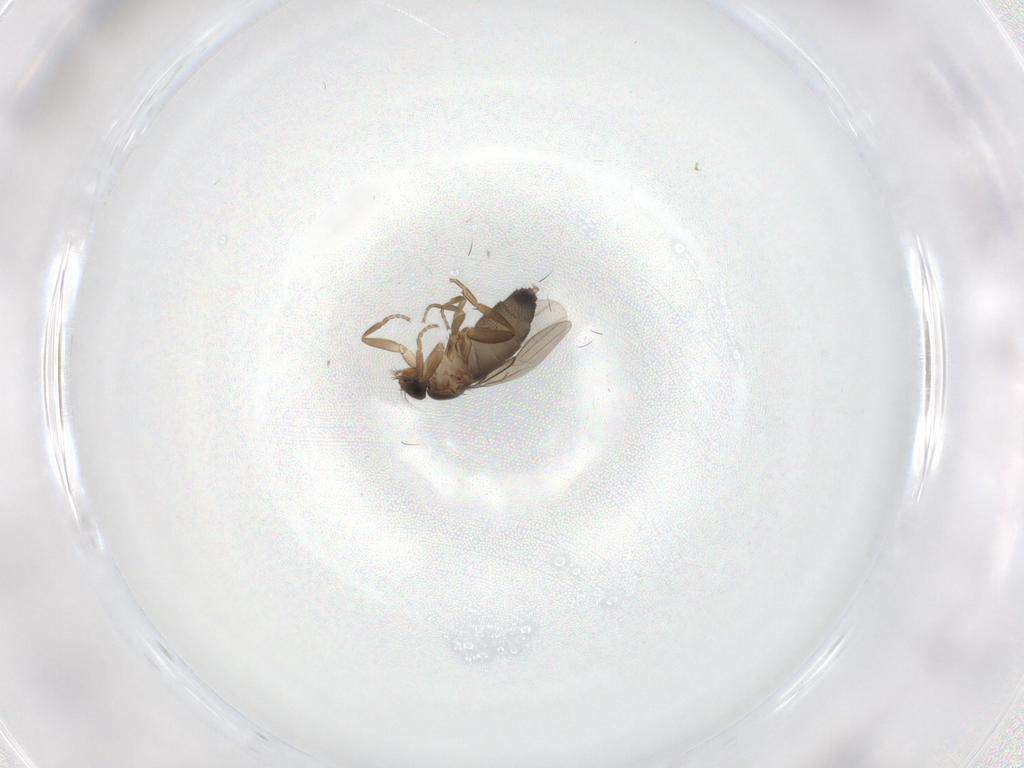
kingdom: Animalia
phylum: Arthropoda
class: Insecta
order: Diptera
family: Phoridae
